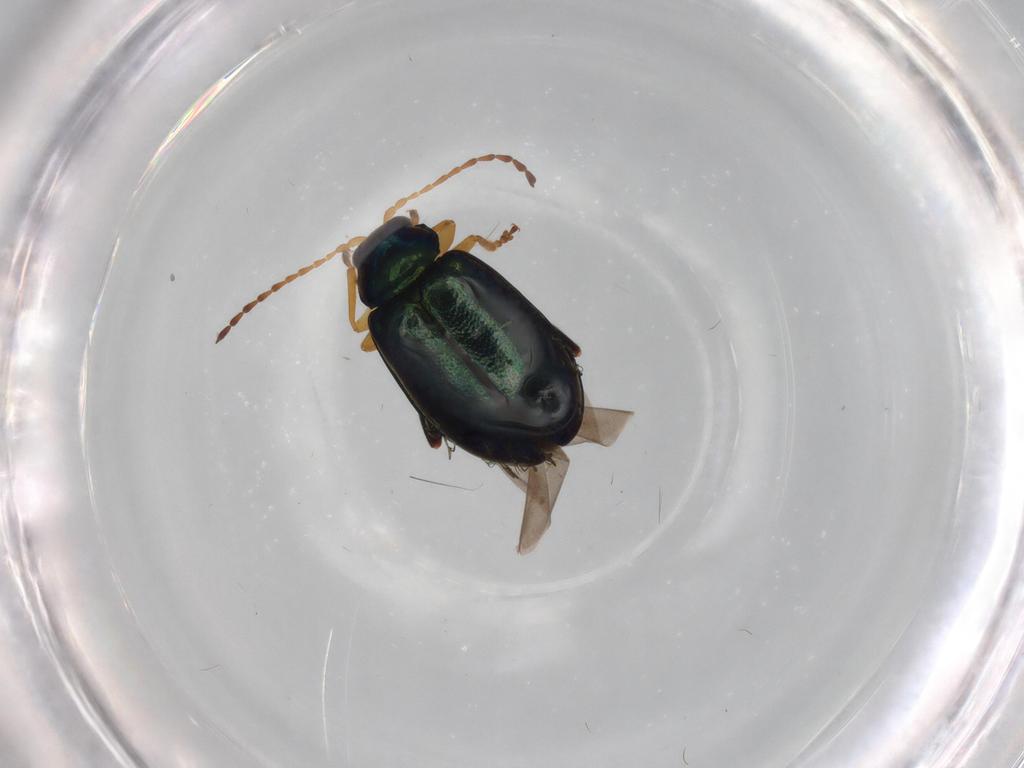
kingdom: Animalia
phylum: Arthropoda
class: Insecta
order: Coleoptera
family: Chrysomelidae
